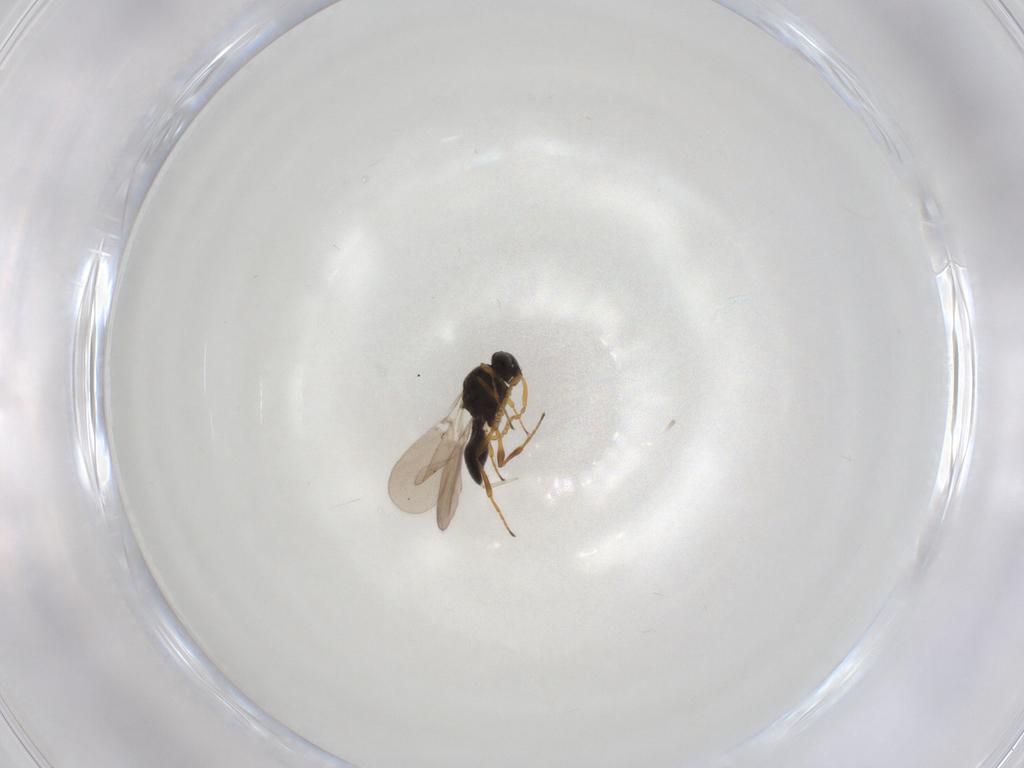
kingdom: Animalia
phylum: Arthropoda
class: Insecta
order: Hymenoptera
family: Platygastridae
